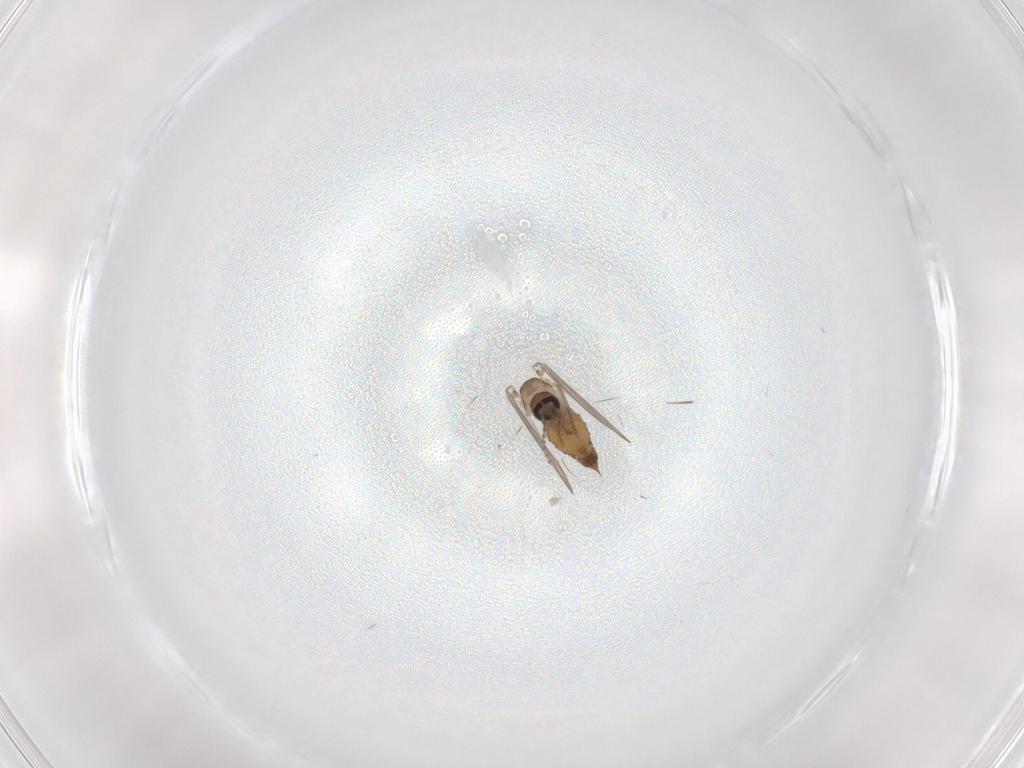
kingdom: Animalia
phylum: Arthropoda
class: Insecta
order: Diptera
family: Psychodidae
